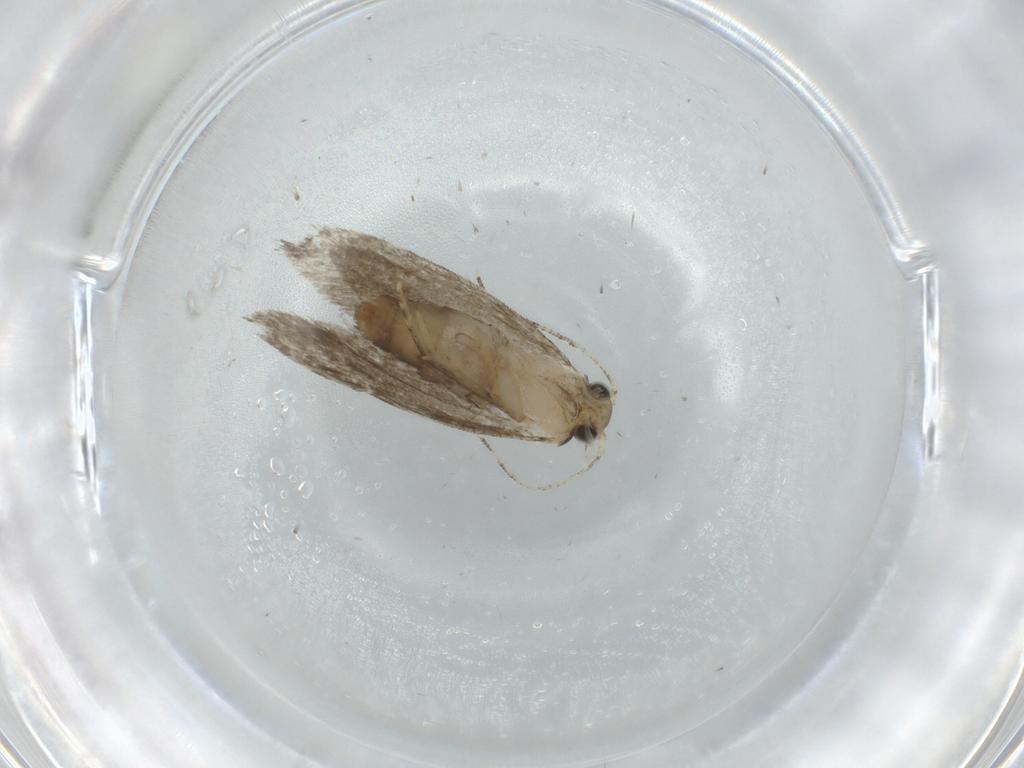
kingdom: Animalia
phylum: Arthropoda
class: Insecta
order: Lepidoptera
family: Tineidae
